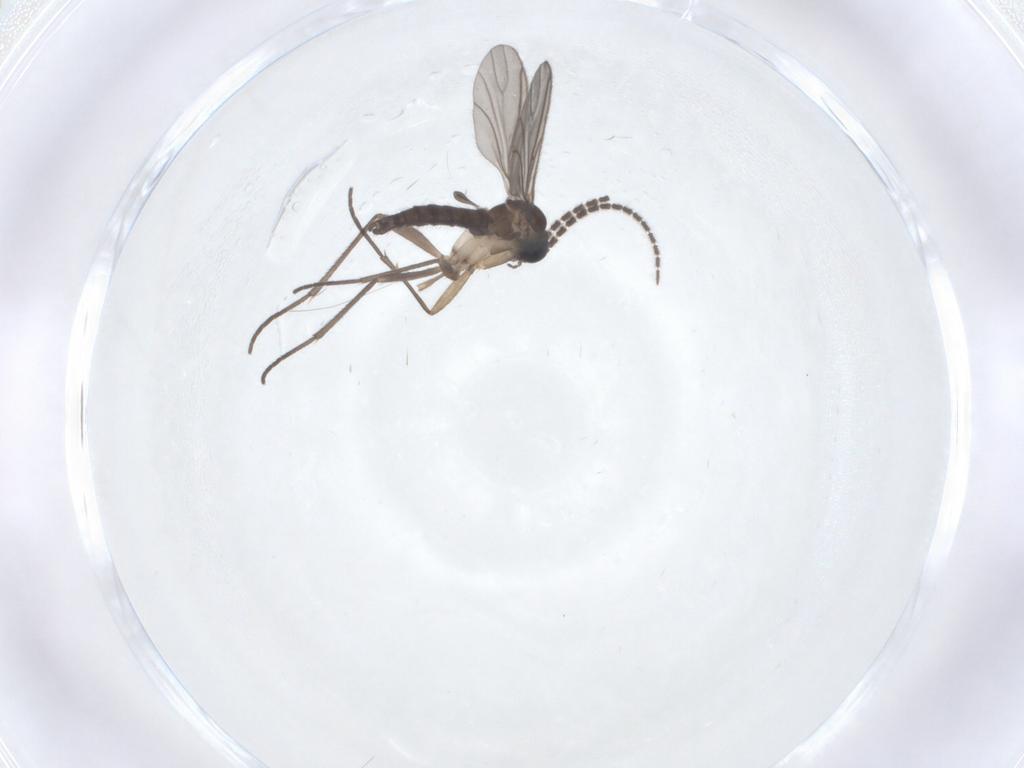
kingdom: Animalia
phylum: Arthropoda
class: Insecta
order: Diptera
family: Sciaridae
